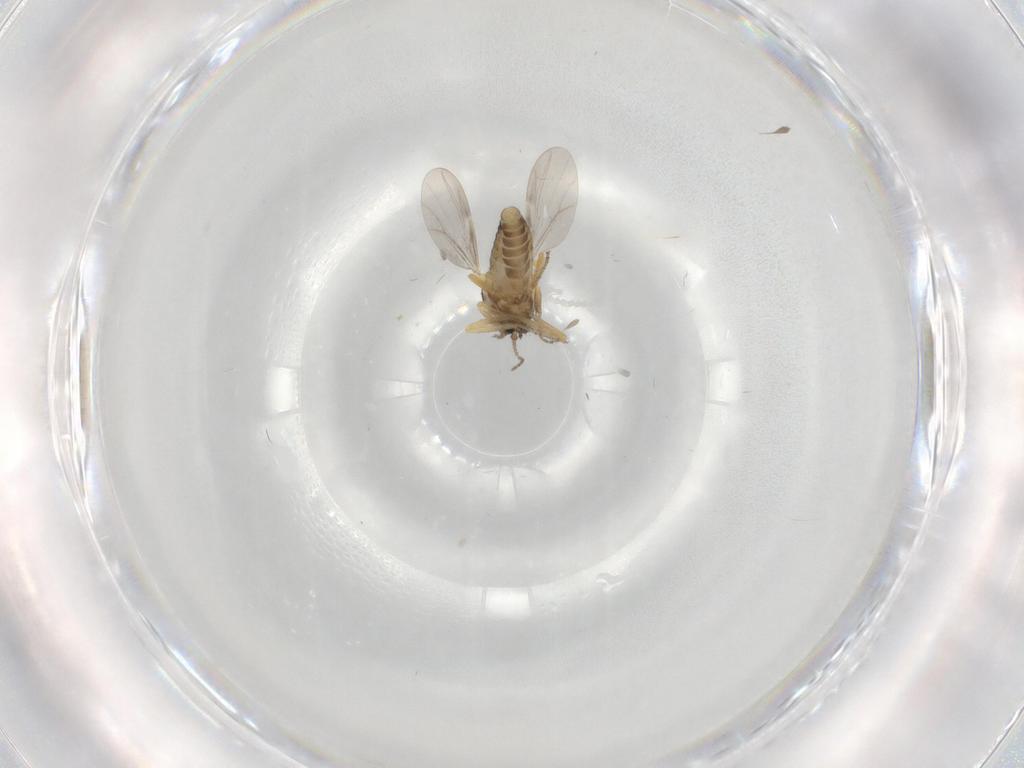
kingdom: Animalia
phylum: Arthropoda
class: Insecta
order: Diptera
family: Ceratopogonidae
